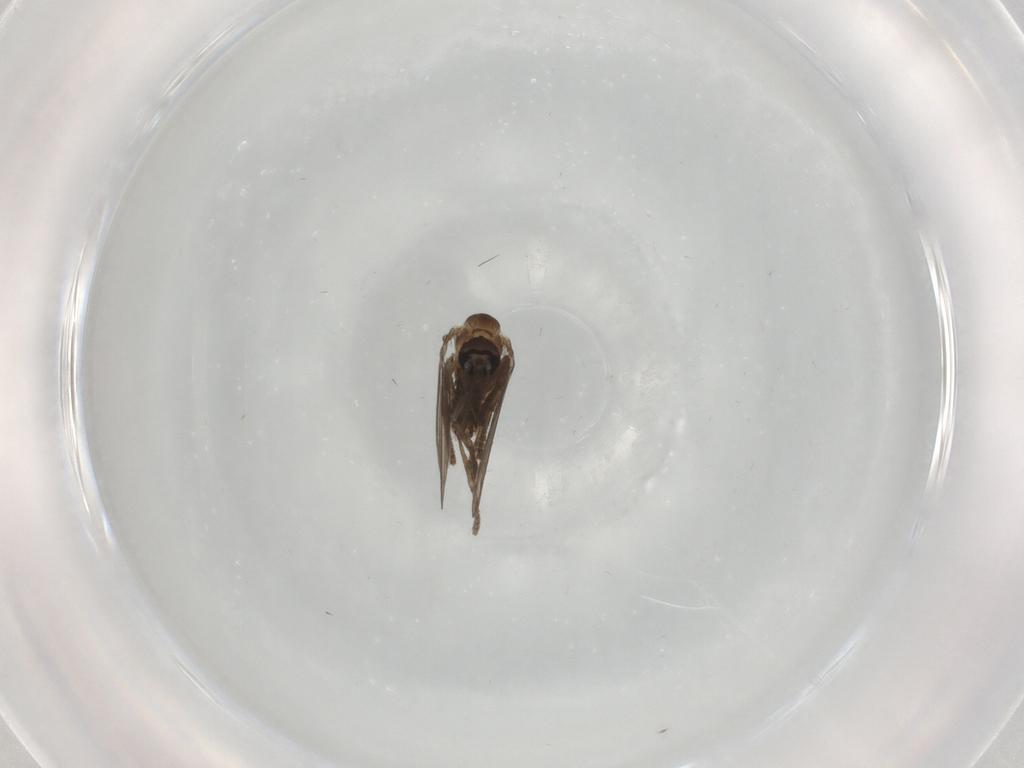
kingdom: Animalia
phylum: Arthropoda
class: Insecta
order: Diptera
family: Psychodidae
